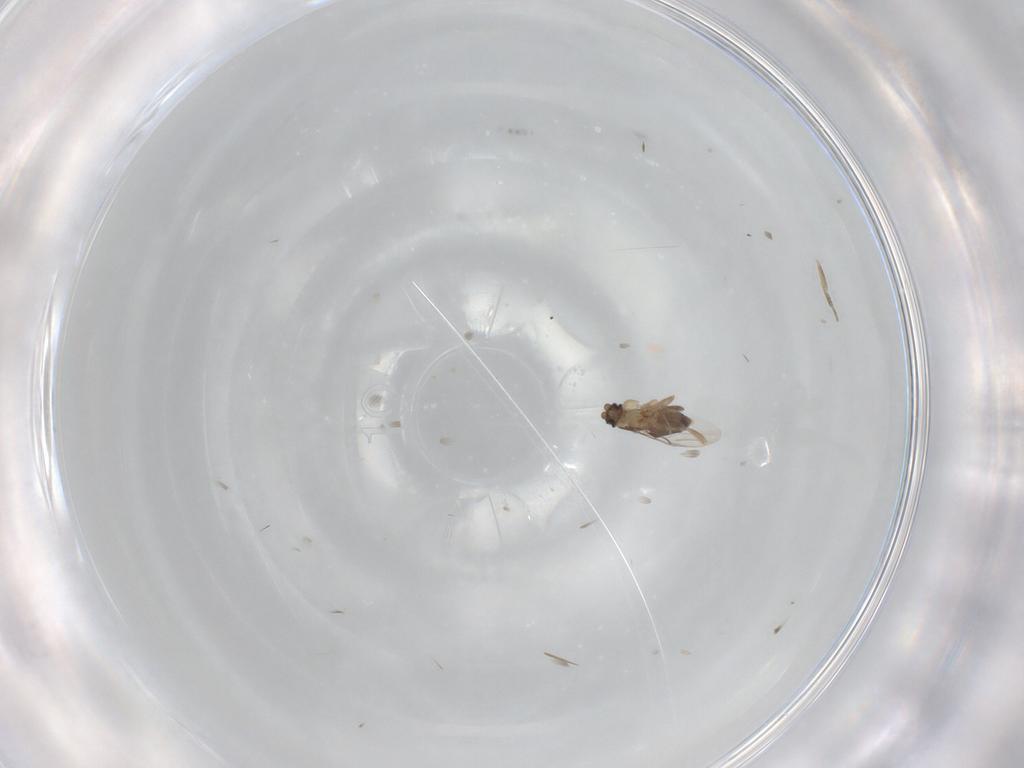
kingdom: Animalia
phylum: Arthropoda
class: Insecta
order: Diptera
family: Phoridae
